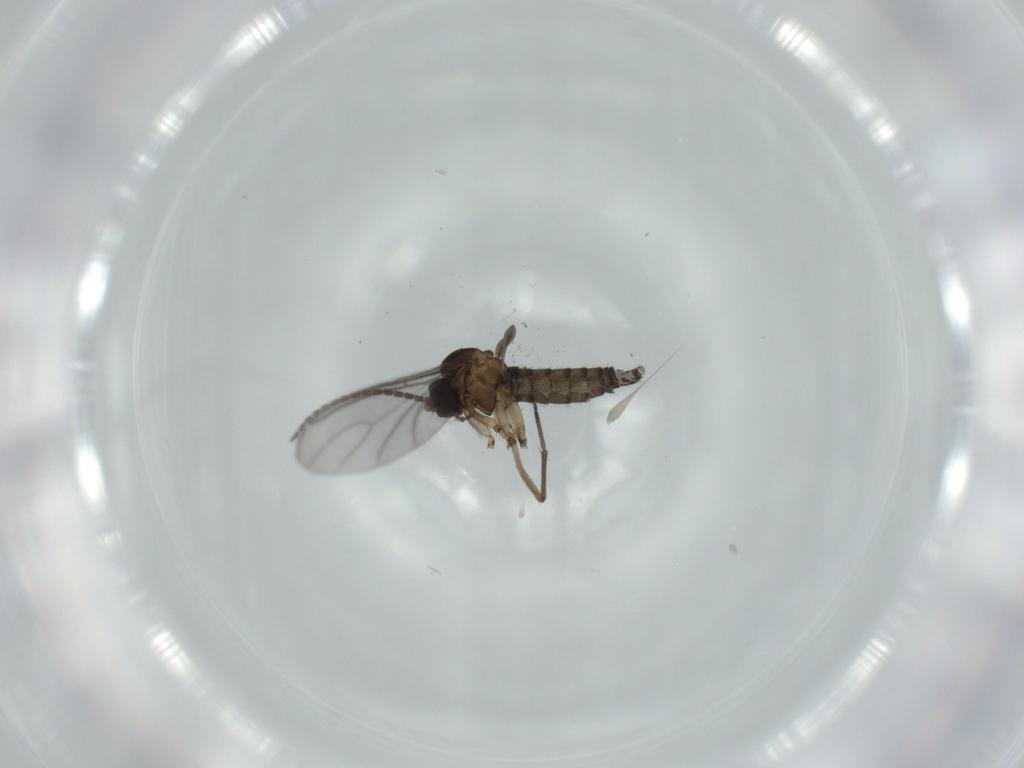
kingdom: Animalia
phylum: Arthropoda
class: Insecta
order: Diptera
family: Sciaridae
